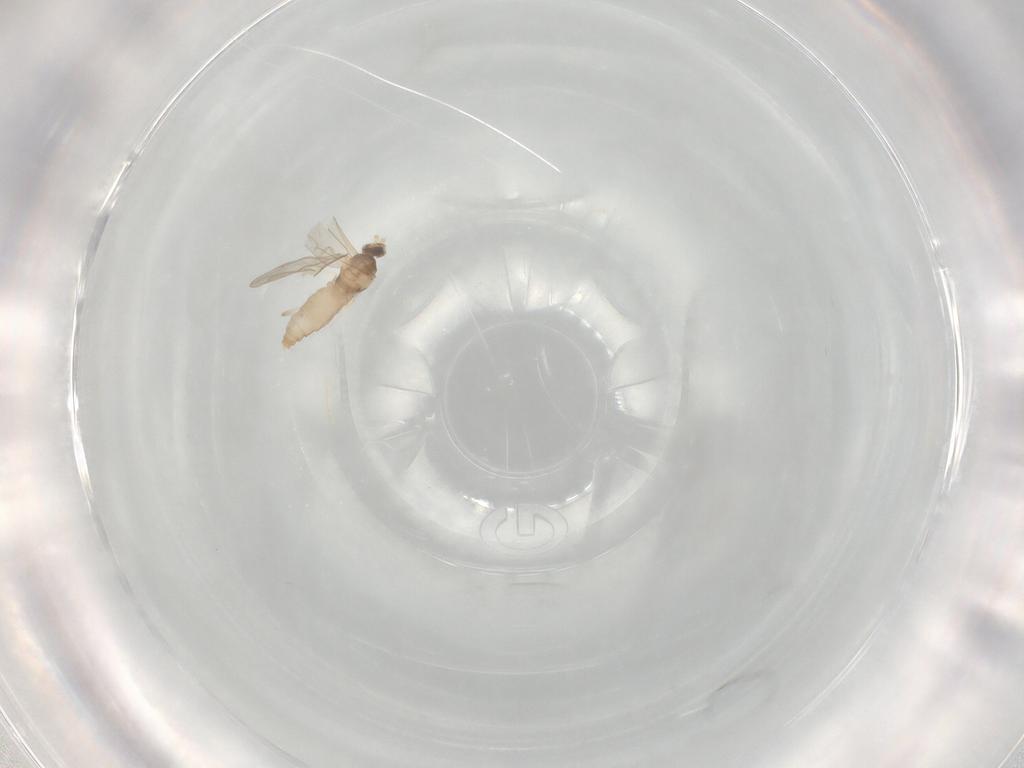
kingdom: Animalia
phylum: Arthropoda
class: Insecta
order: Diptera
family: Cecidomyiidae
